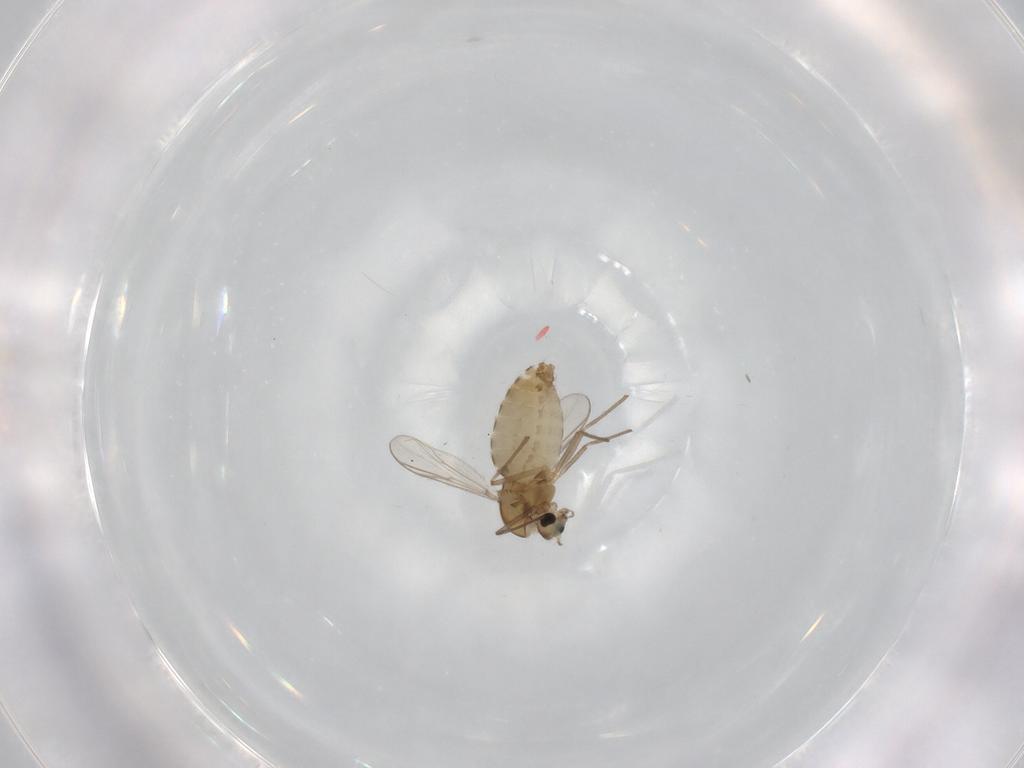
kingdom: Animalia
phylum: Arthropoda
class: Insecta
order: Diptera
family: Chironomidae
